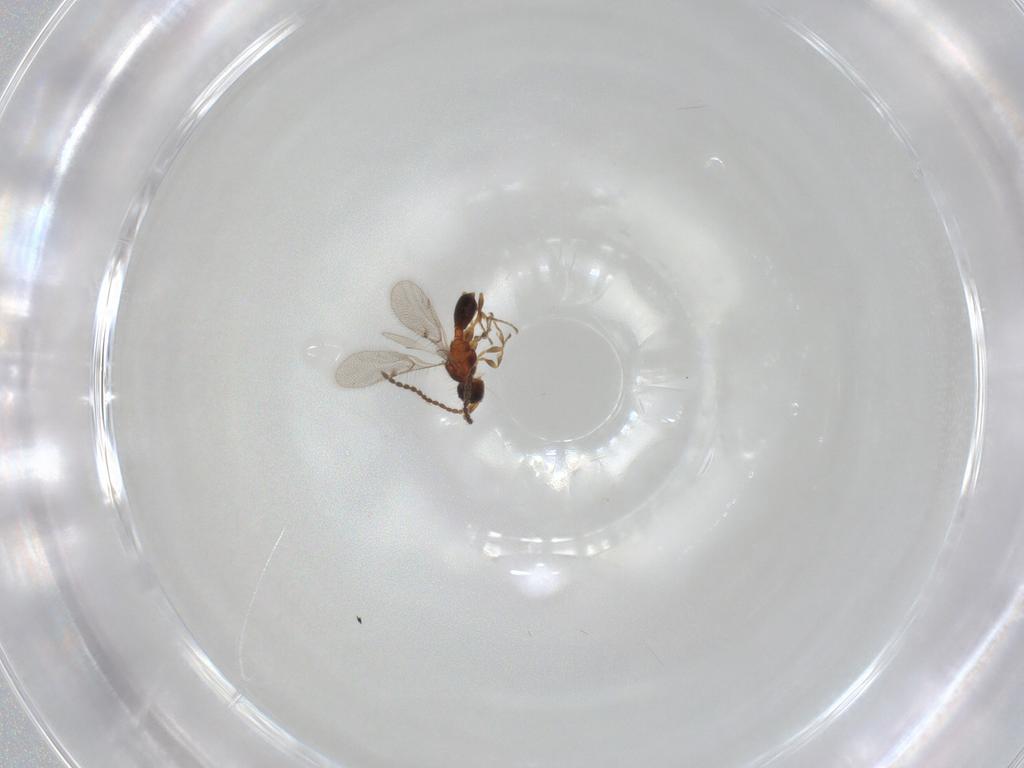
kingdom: Animalia
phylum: Arthropoda
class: Insecta
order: Hymenoptera
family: Diapriidae
